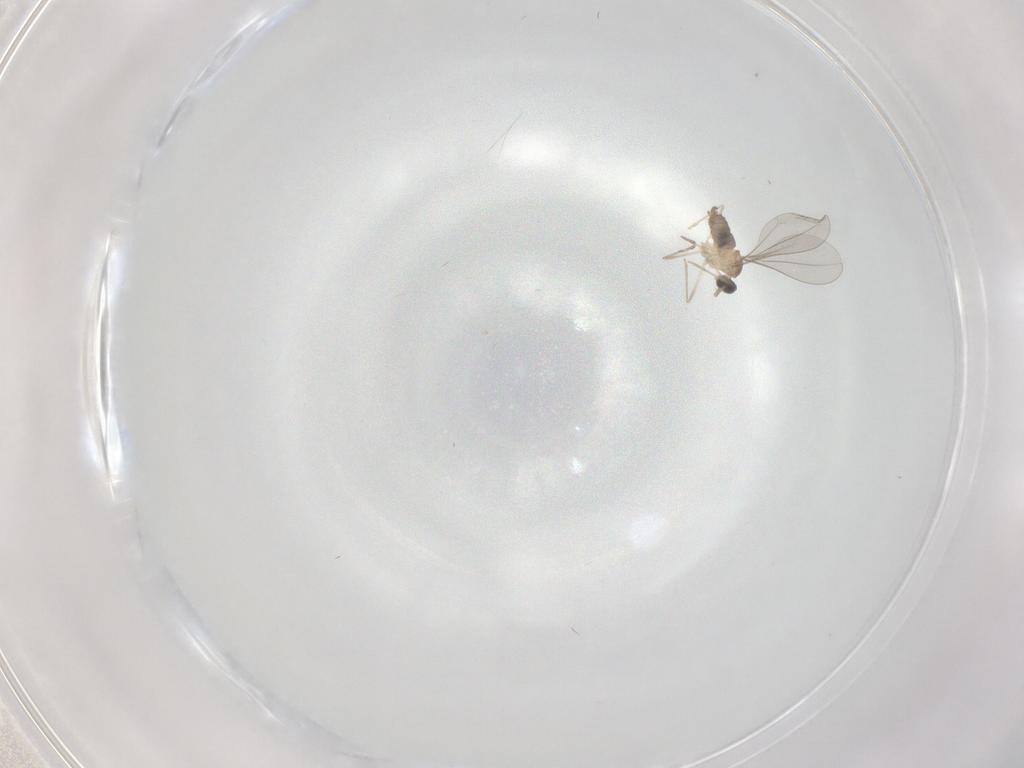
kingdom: Animalia
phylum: Arthropoda
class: Insecta
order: Diptera
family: Cecidomyiidae
